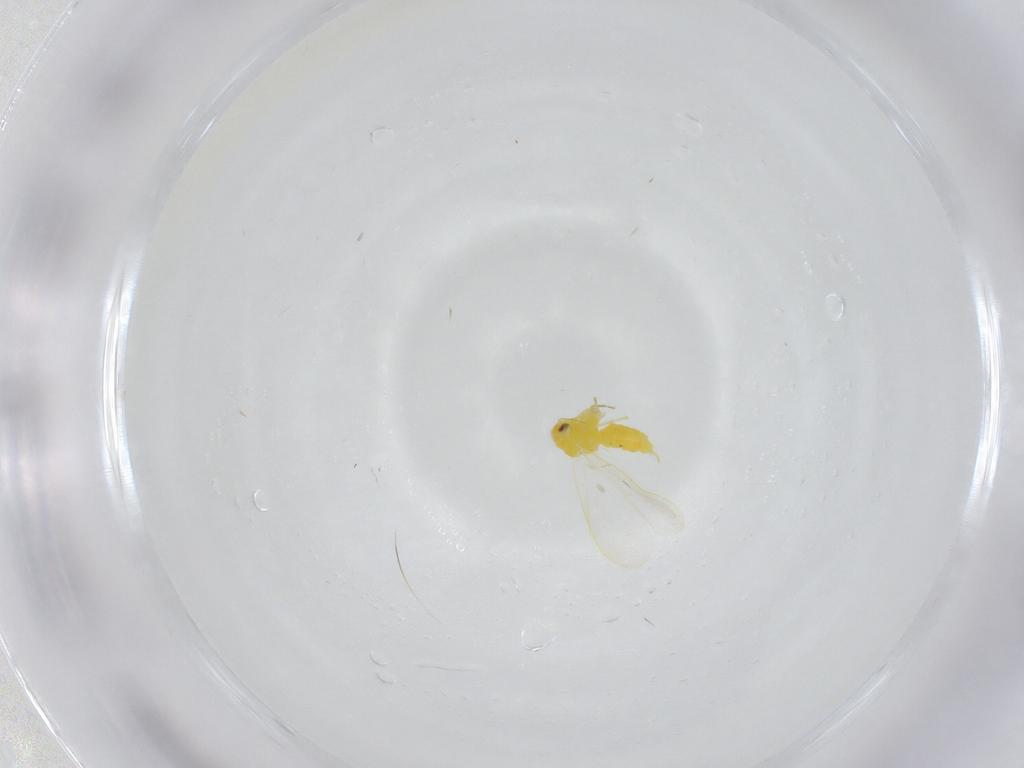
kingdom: Animalia
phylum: Arthropoda
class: Insecta
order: Hemiptera
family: Aleyrodidae
